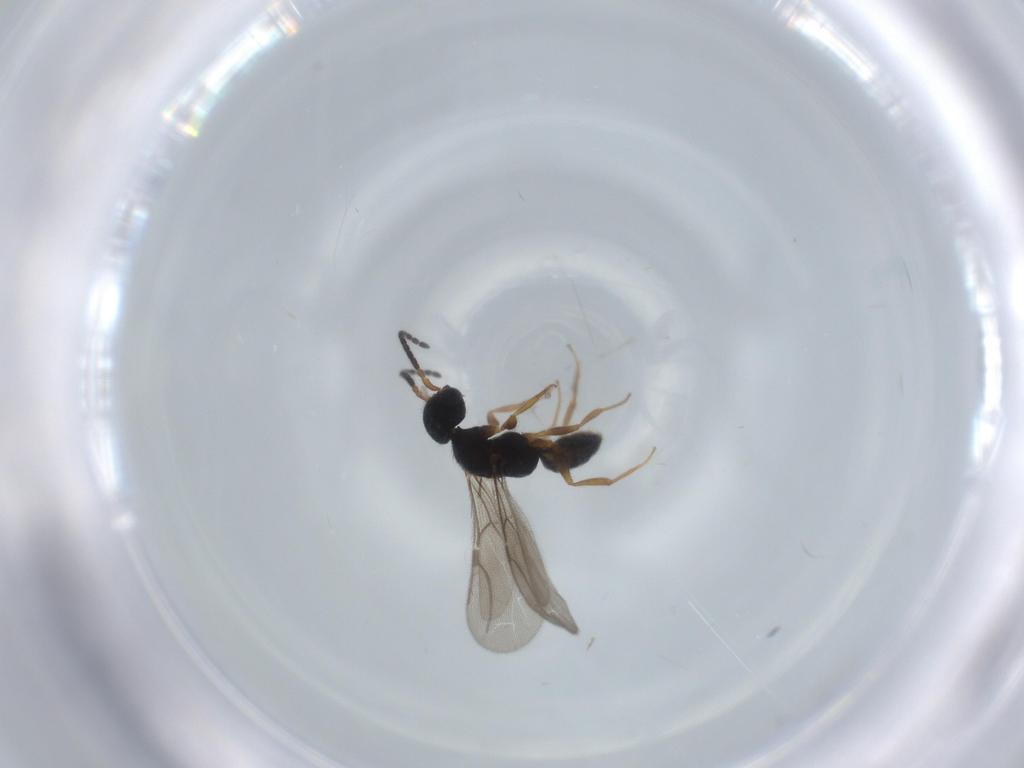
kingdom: Animalia
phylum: Arthropoda
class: Insecta
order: Hymenoptera
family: Bethylidae
